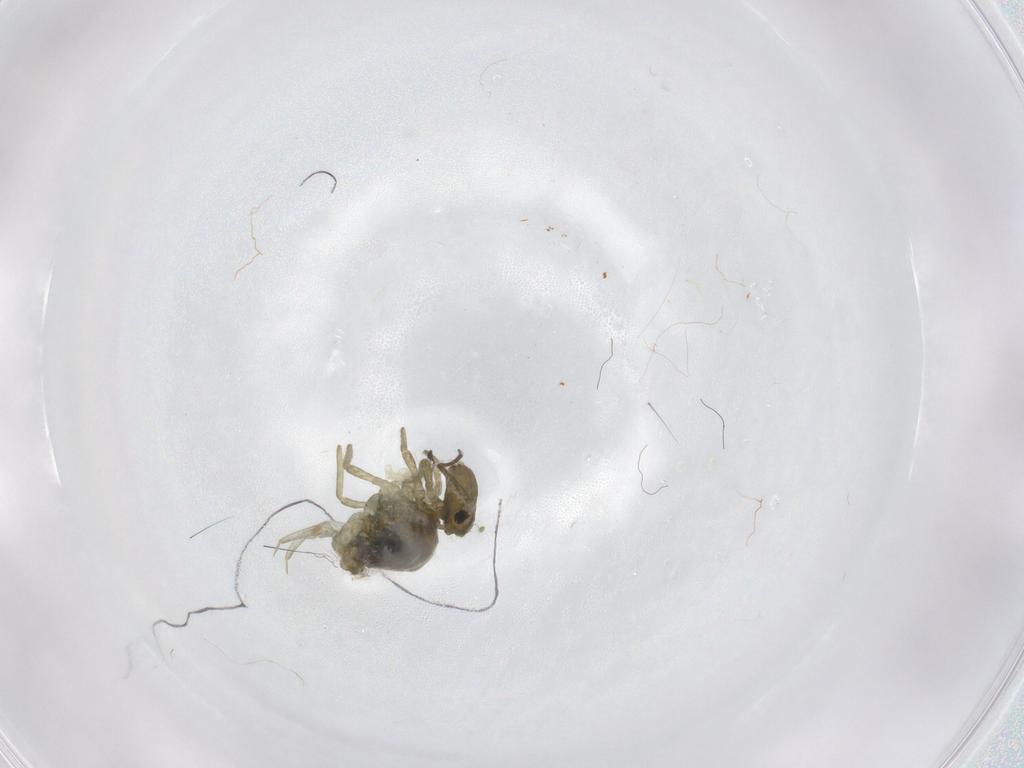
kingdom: Animalia
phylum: Arthropoda
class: Collembola
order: Symphypleona
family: Sminthuridae
